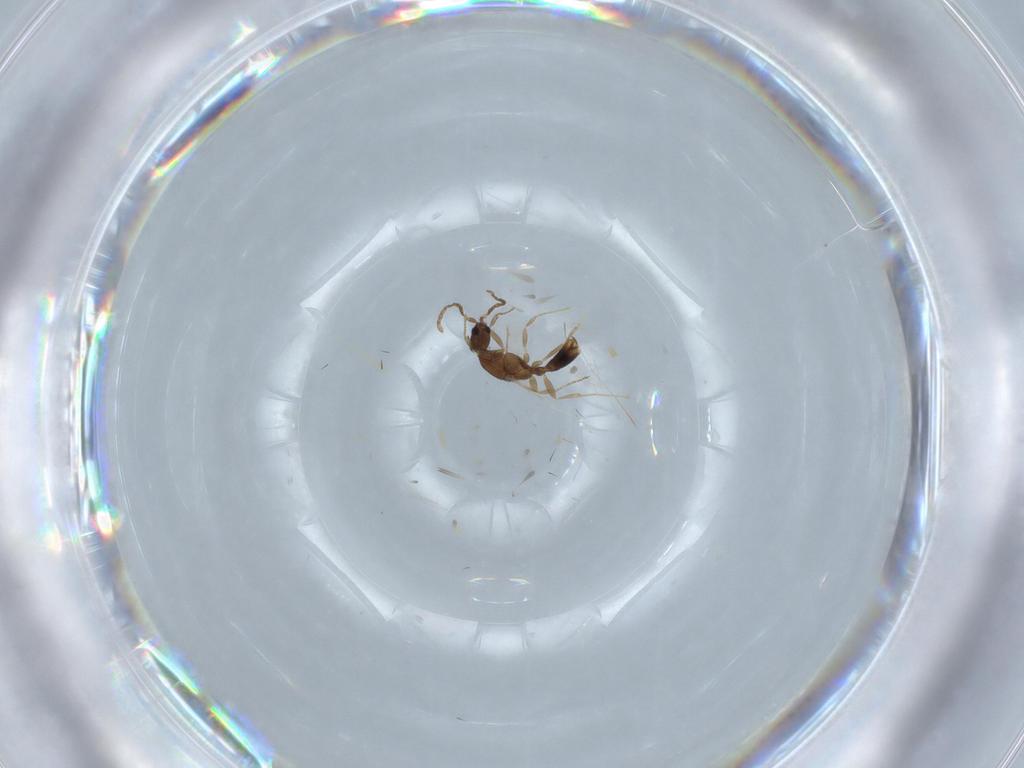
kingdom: Animalia
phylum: Arthropoda
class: Insecta
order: Hymenoptera
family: Formicidae
